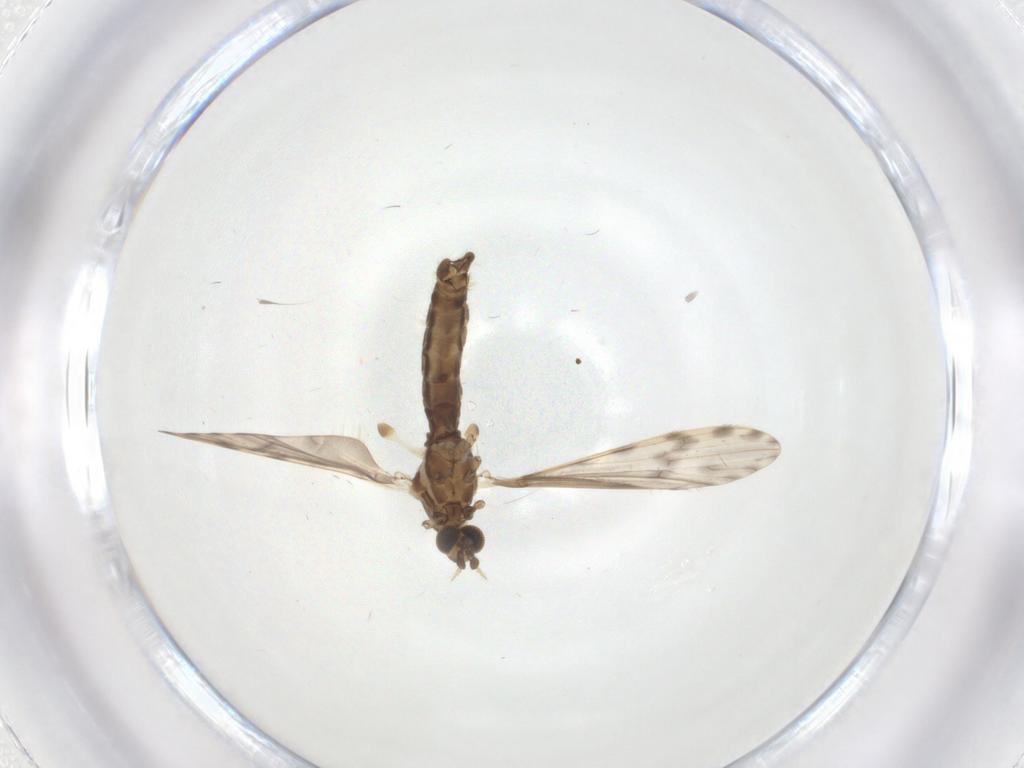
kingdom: Animalia
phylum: Arthropoda
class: Insecta
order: Diptera
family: Limoniidae
